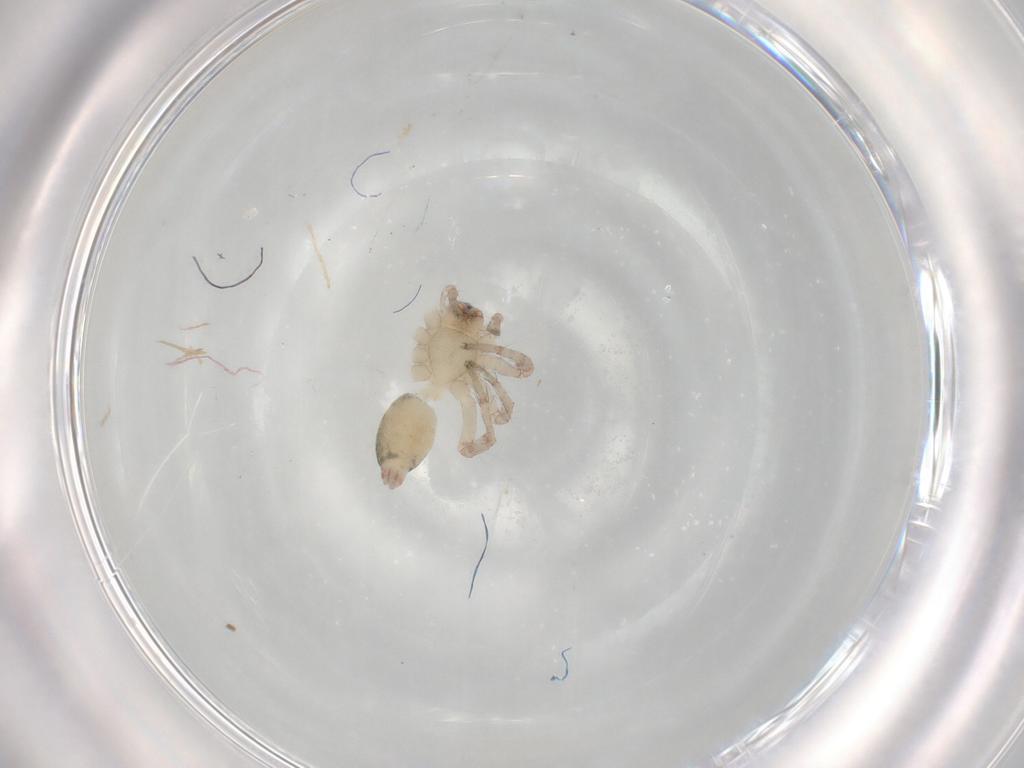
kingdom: Animalia
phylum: Arthropoda
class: Arachnida
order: Araneae
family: Anyphaenidae
